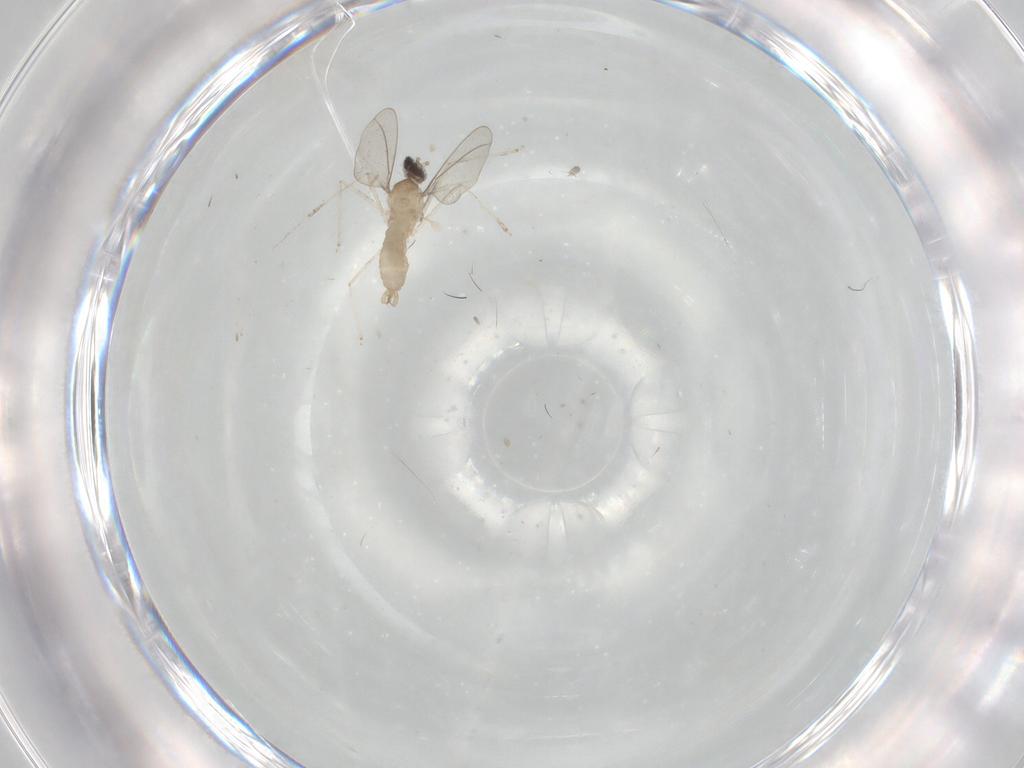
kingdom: Animalia
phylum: Arthropoda
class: Insecta
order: Diptera
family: Cecidomyiidae
